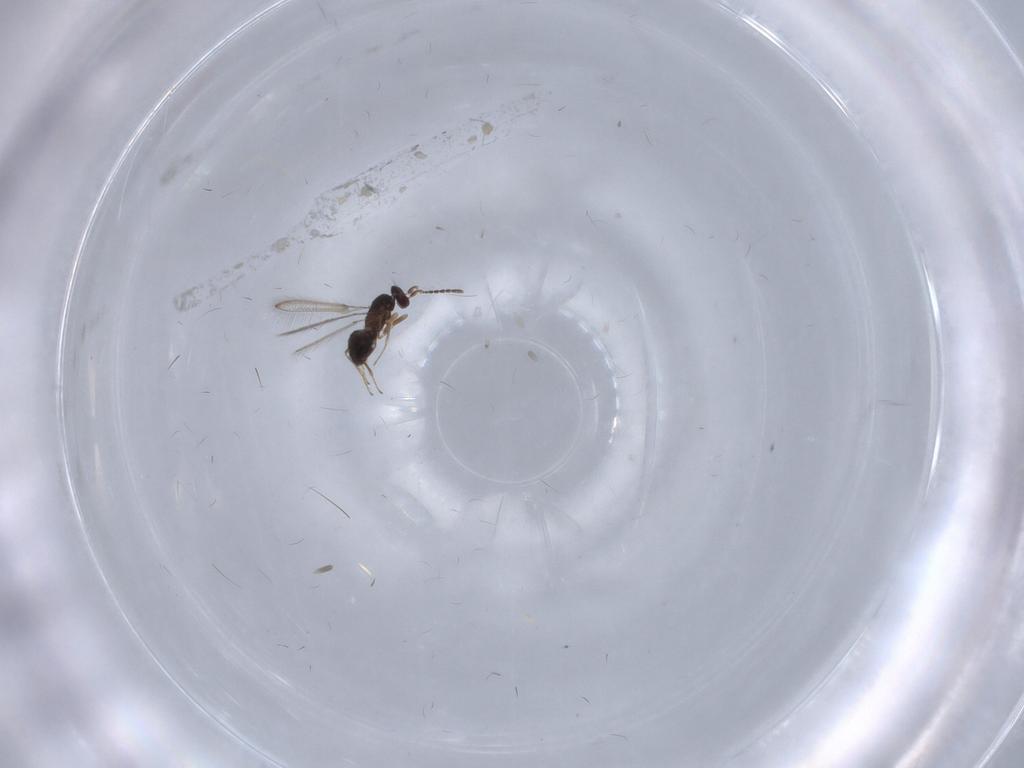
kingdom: Animalia
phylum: Arthropoda
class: Insecta
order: Hymenoptera
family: Mymaridae
